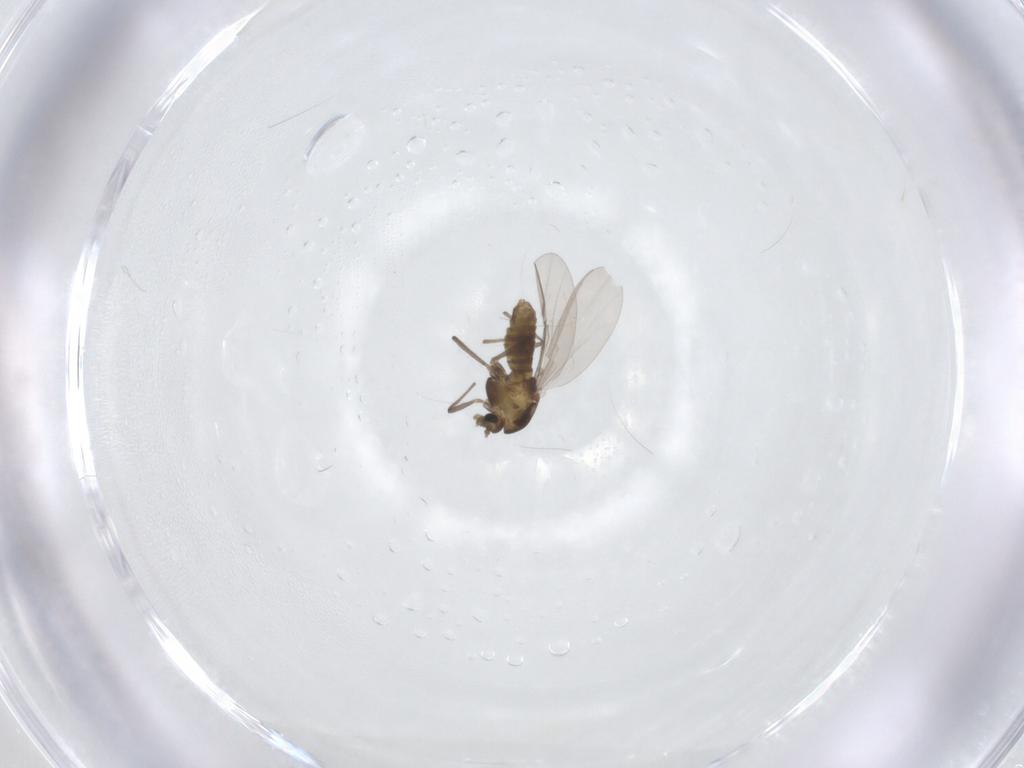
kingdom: Animalia
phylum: Arthropoda
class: Insecta
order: Diptera
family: Chironomidae
